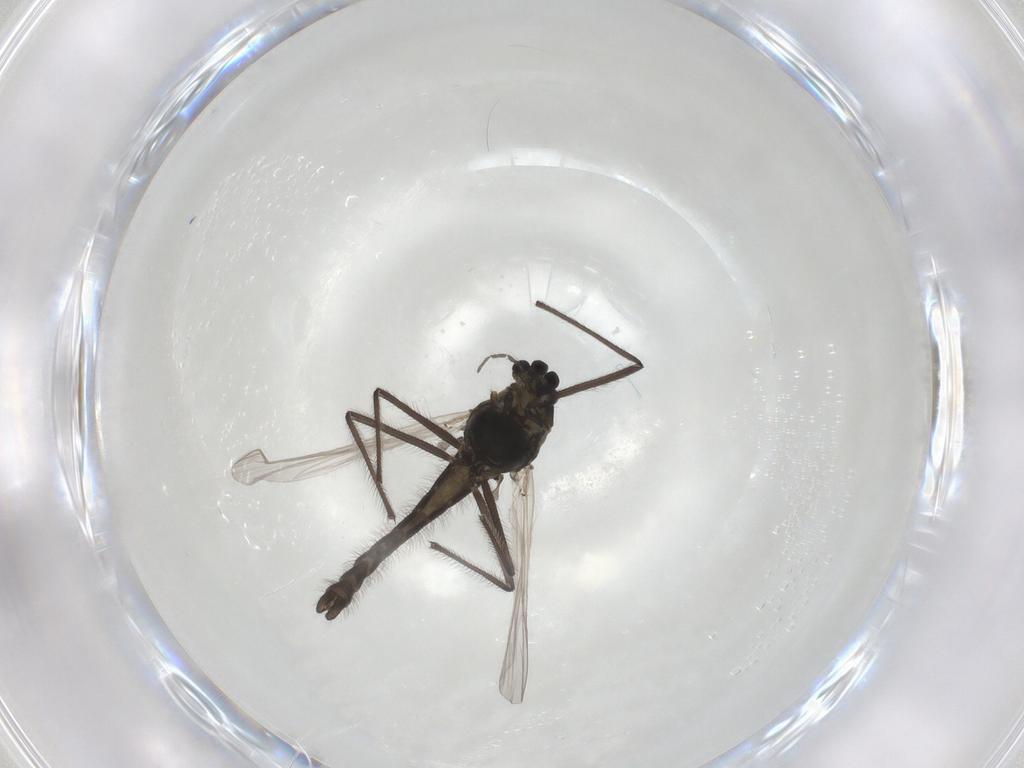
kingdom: Animalia
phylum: Arthropoda
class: Insecta
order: Diptera
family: Chironomidae
